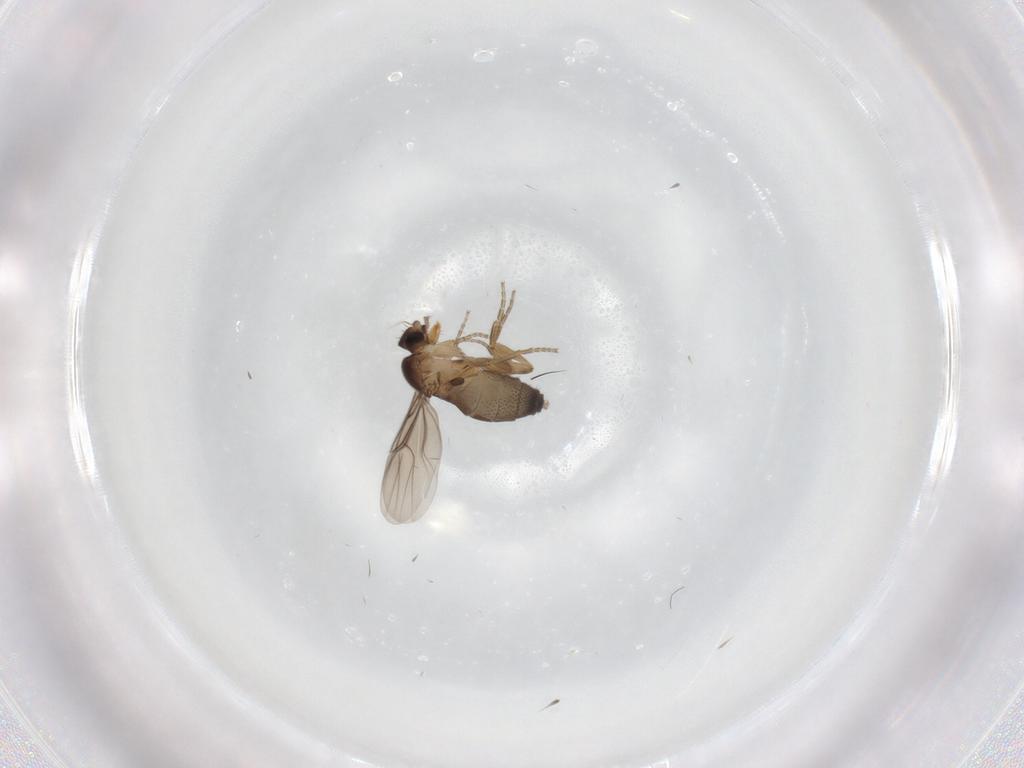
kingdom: Animalia
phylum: Arthropoda
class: Insecta
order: Diptera
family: Phoridae
